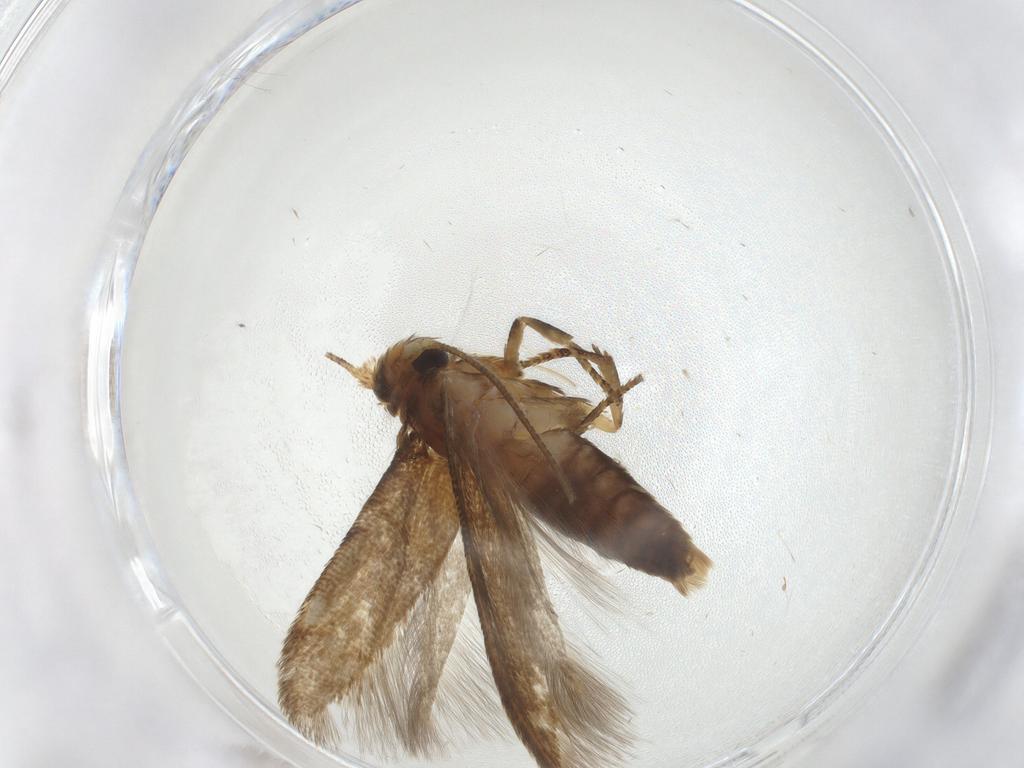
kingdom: Animalia
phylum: Arthropoda
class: Insecta
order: Lepidoptera
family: Blastobasidae
